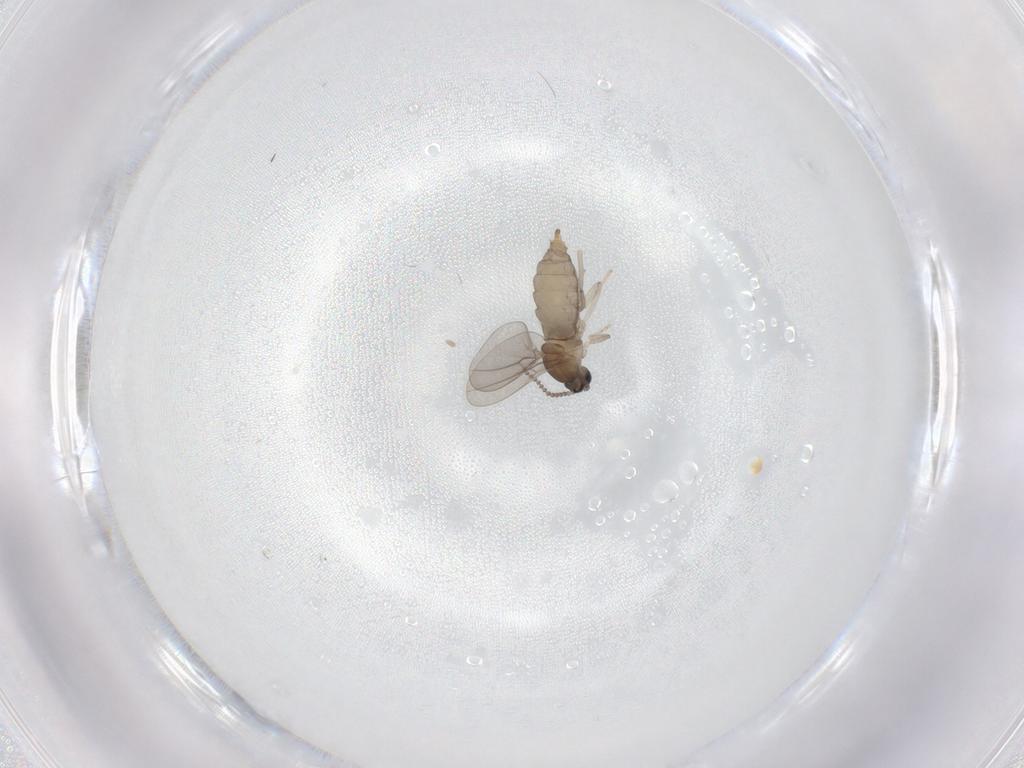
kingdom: Animalia
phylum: Arthropoda
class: Insecta
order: Diptera
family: Cecidomyiidae
